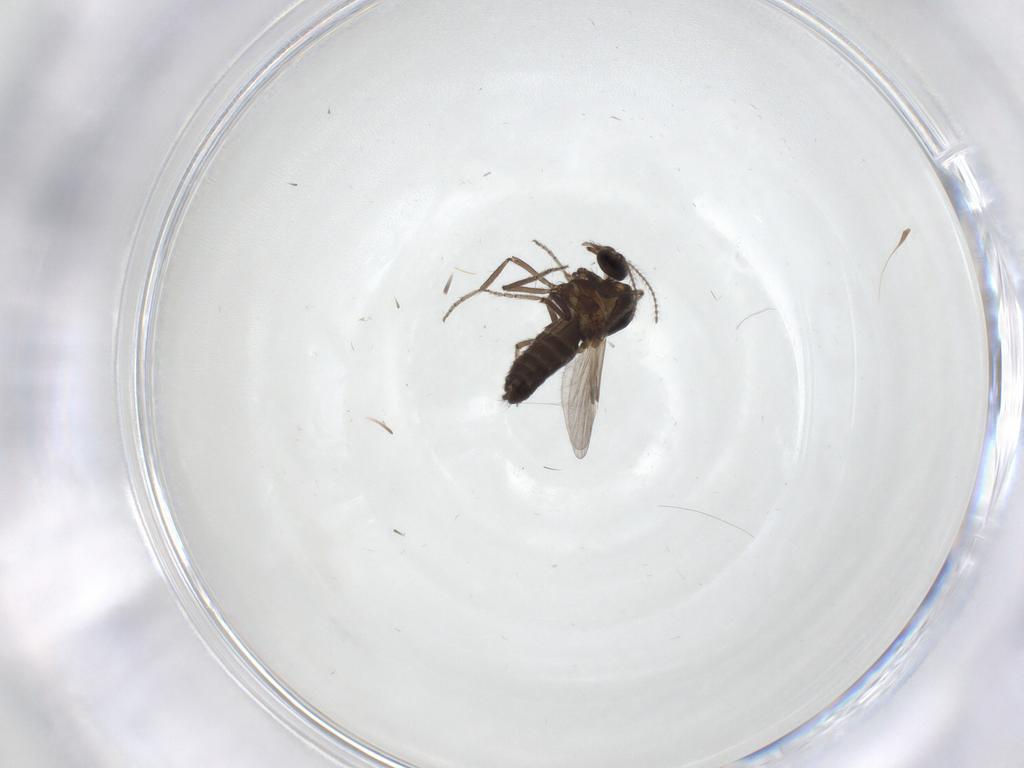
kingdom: Animalia
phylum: Arthropoda
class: Insecta
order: Diptera
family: Ceratopogonidae
